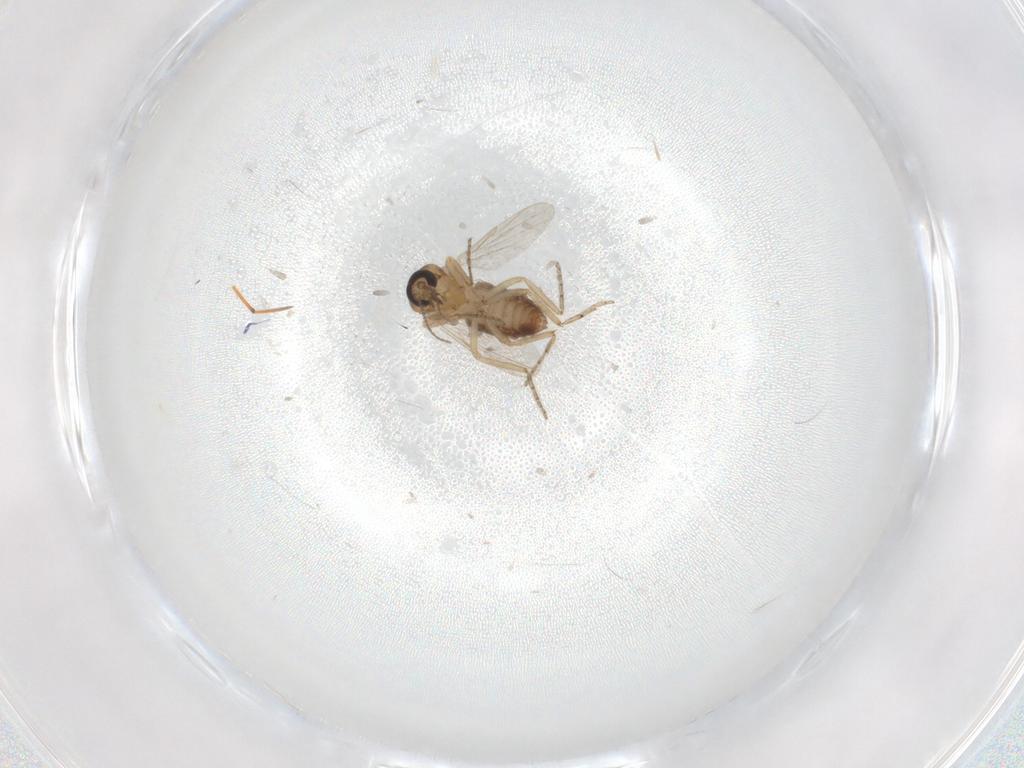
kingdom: Animalia
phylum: Arthropoda
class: Insecta
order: Diptera
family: Ceratopogonidae
